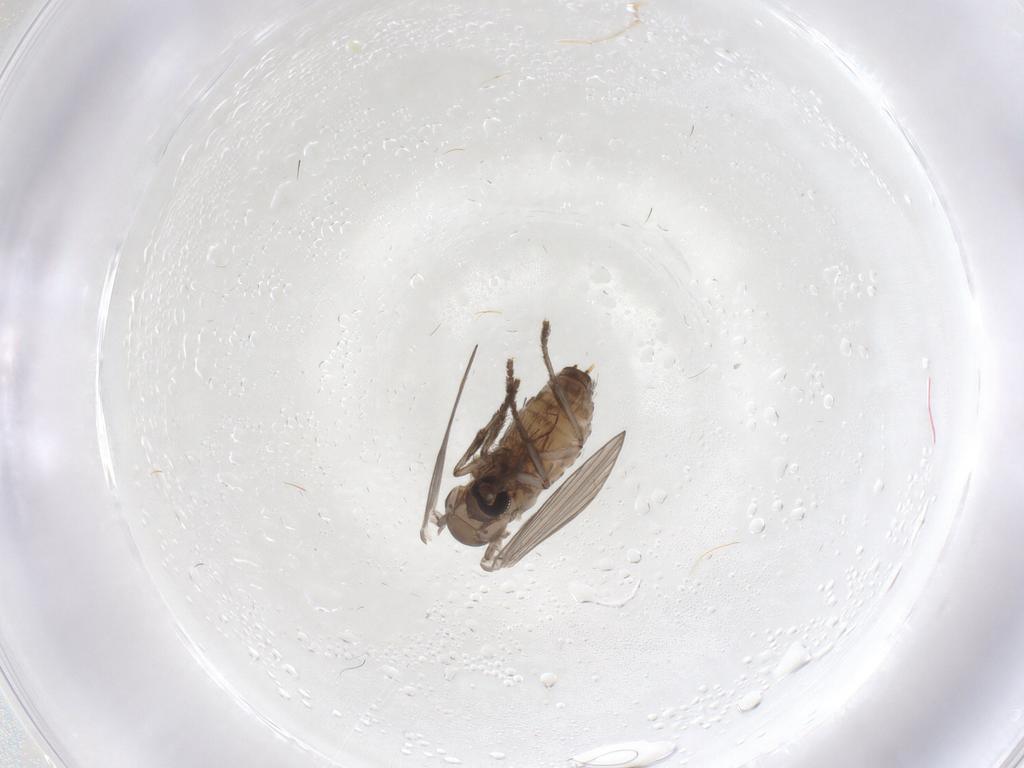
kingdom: Animalia
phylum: Arthropoda
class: Insecta
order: Diptera
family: Psychodidae
